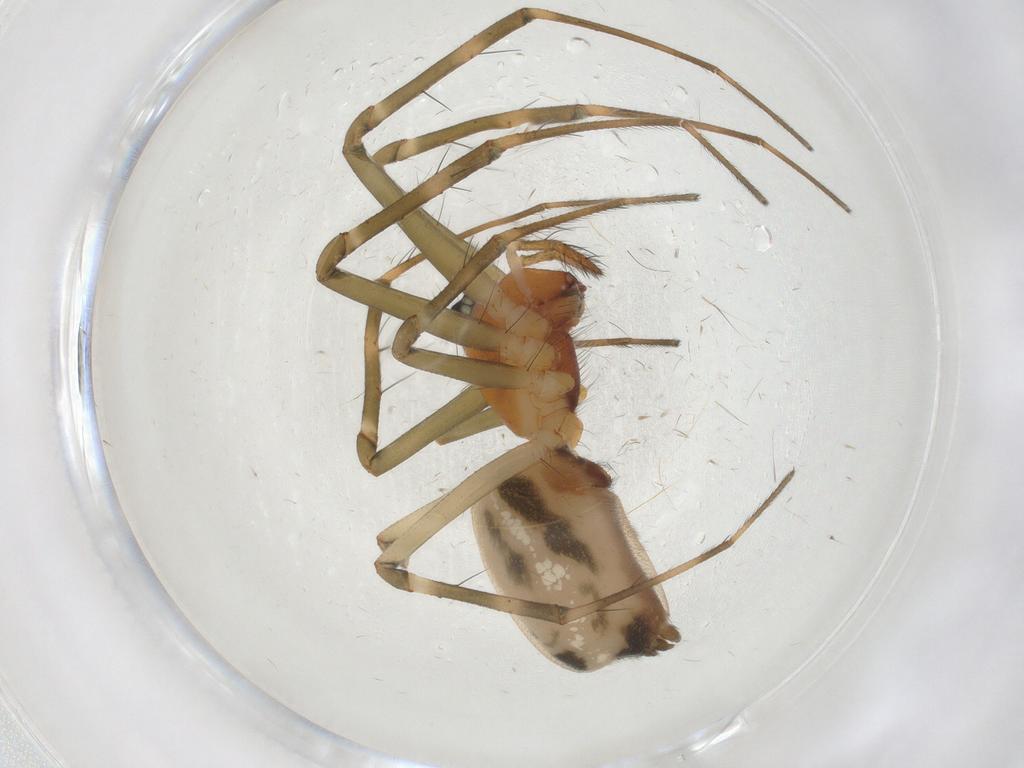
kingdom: Animalia
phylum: Arthropoda
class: Arachnida
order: Araneae
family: Linyphiidae
